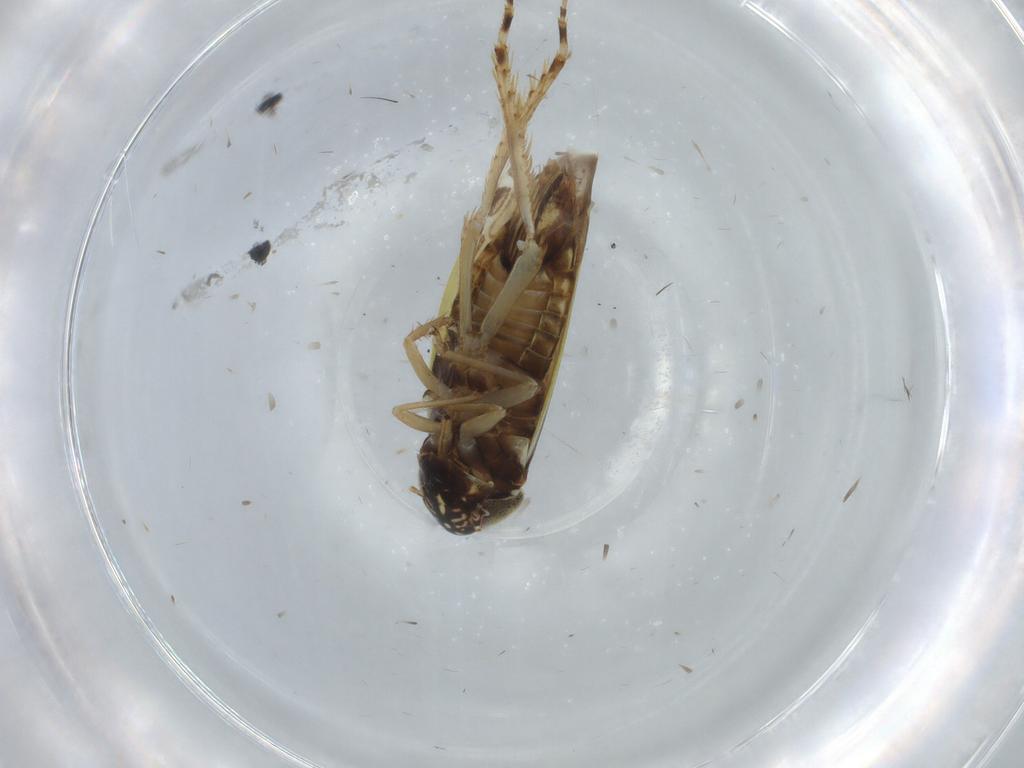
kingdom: Animalia
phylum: Arthropoda
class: Insecta
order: Hemiptera
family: Cicadellidae
